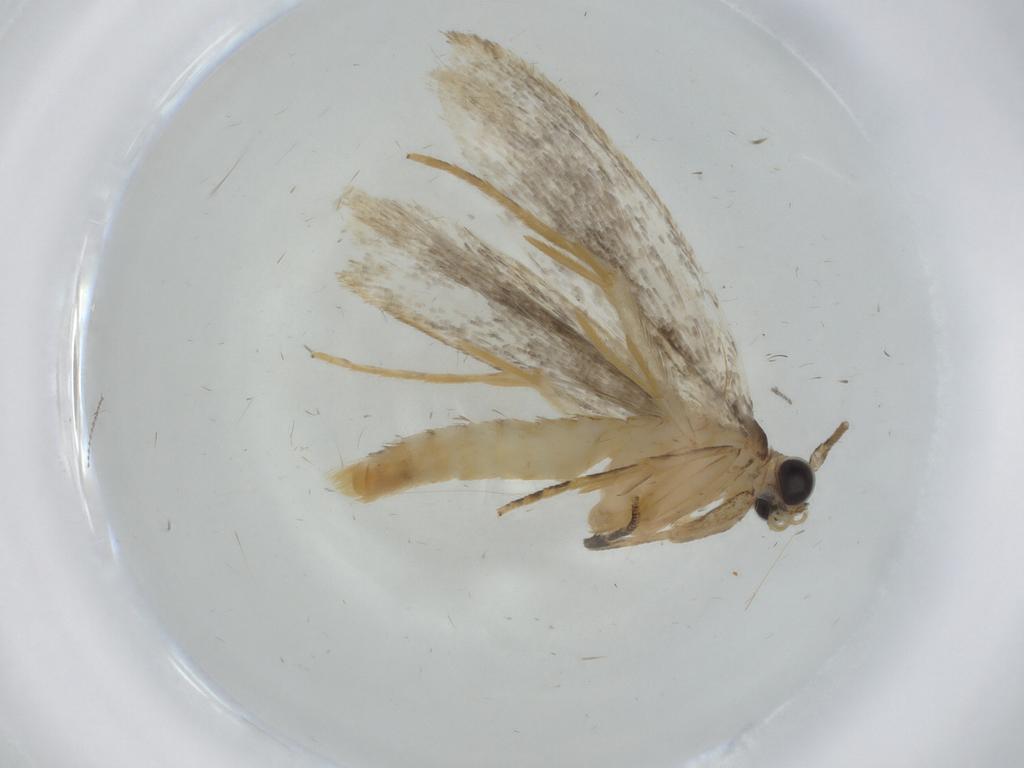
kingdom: Animalia
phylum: Arthropoda
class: Insecta
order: Lepidoptera
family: Tineidae
